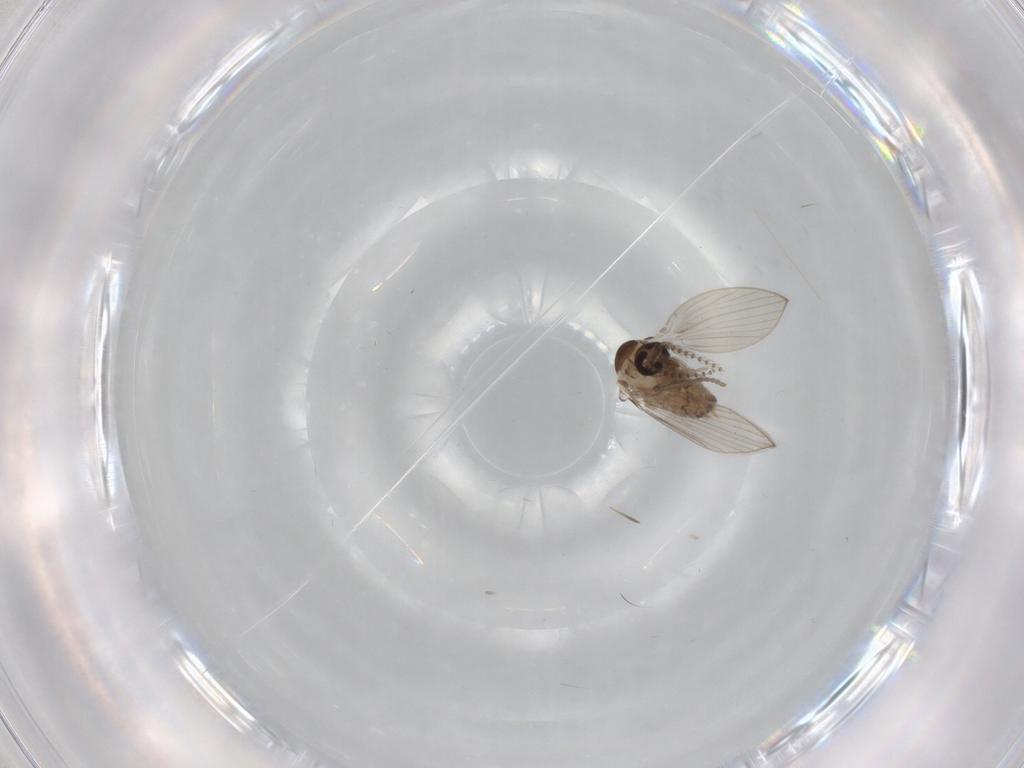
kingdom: Animalia
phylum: Arthropoda
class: Insecta
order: Diptera
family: Psychodidae
